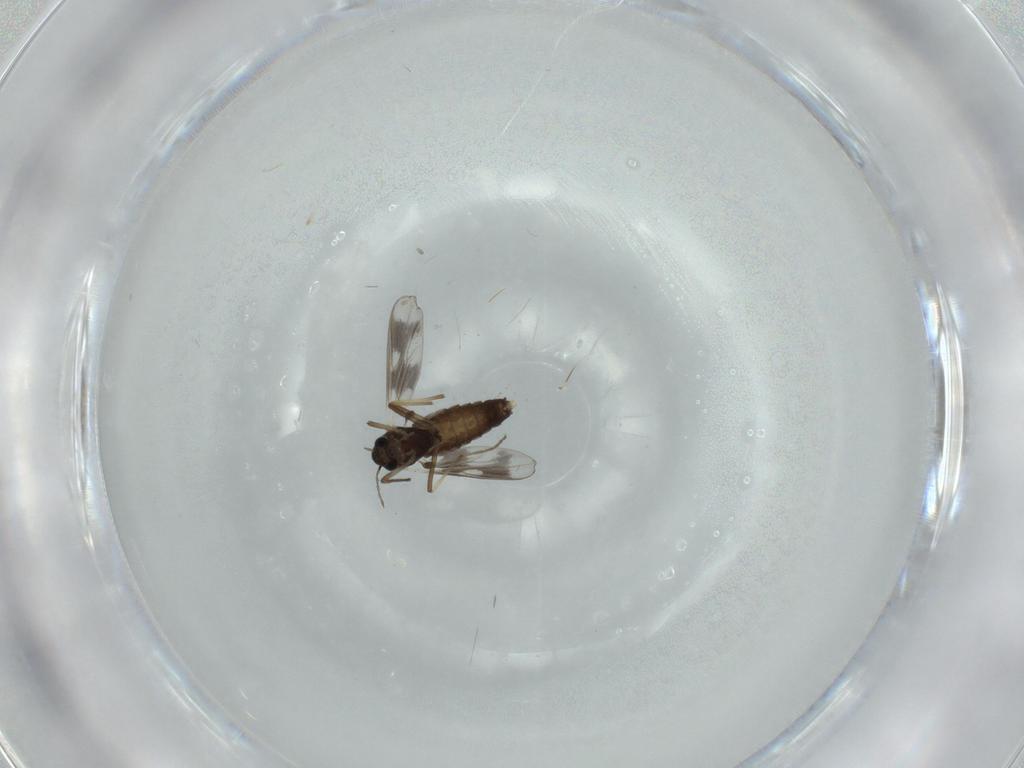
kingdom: Animalia
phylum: Arthropoda
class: Insecta
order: Diptera
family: Chironomidae
